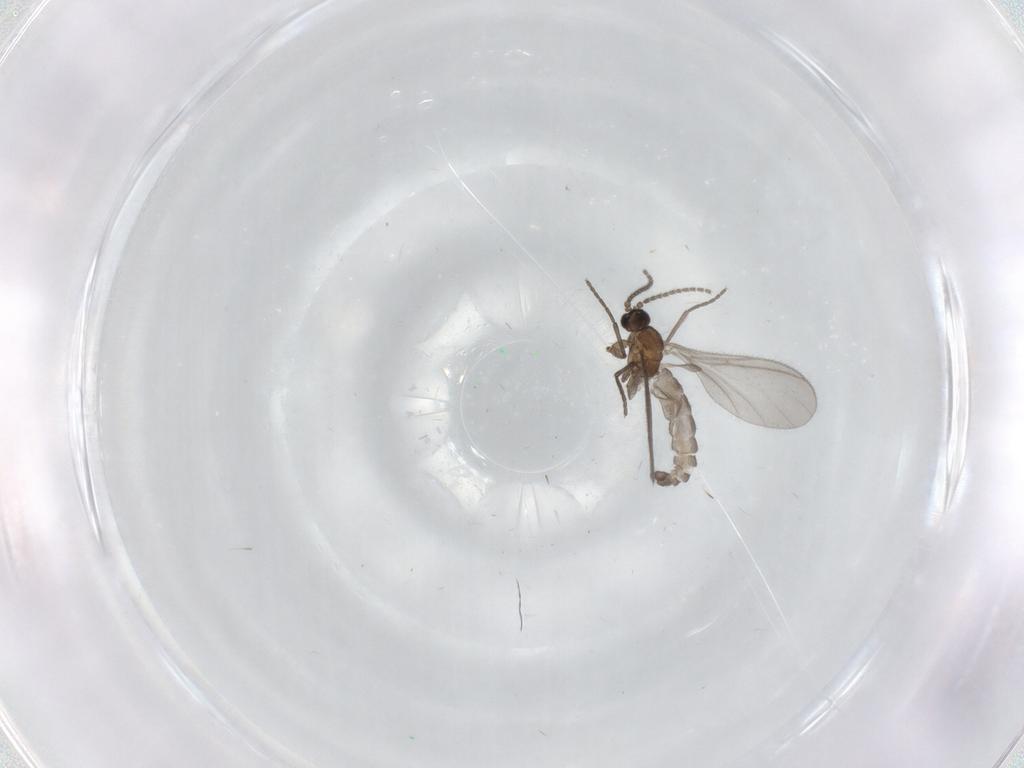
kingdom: Animalia
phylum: Arthropoda
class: Insecta
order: Diptera
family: Sciaridae
